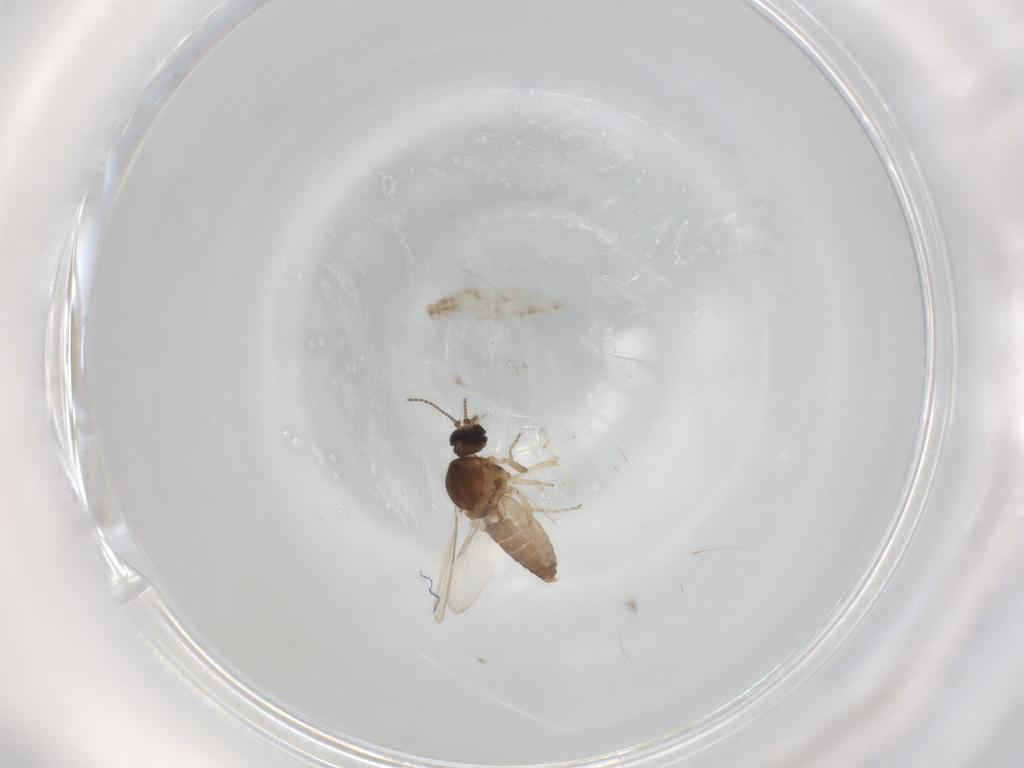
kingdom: Animalia
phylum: Arthropoda
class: Insecta
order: Diptera
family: Ceratopogonidae
